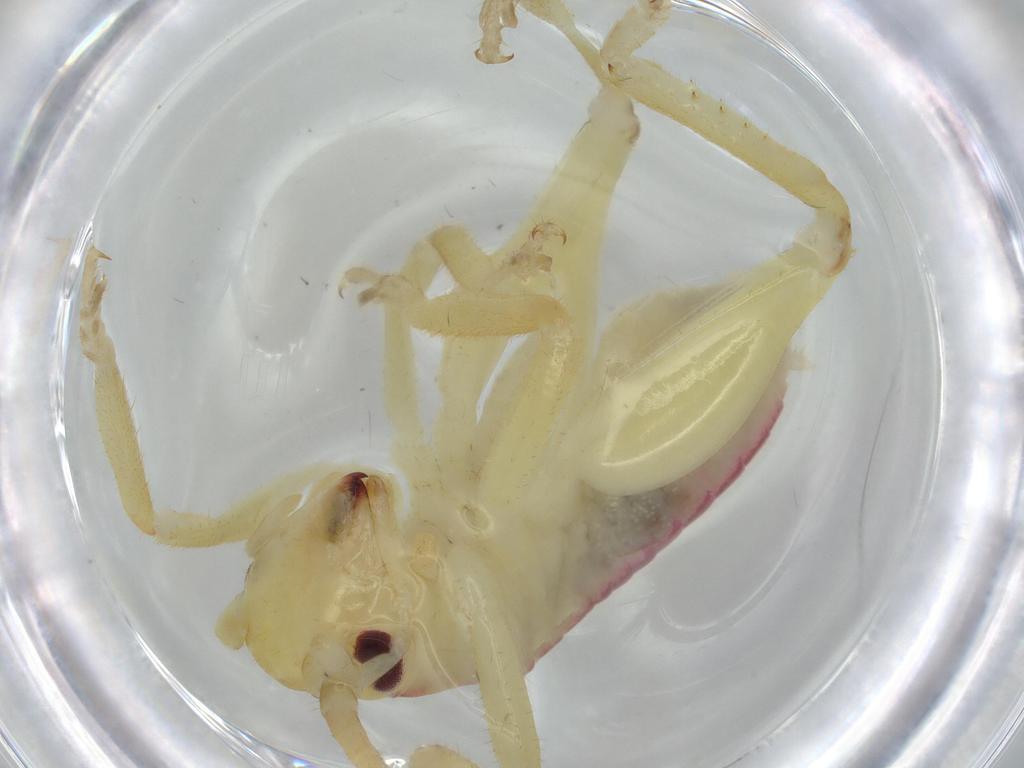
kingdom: Animalia
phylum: Arthropoda
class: Insecta
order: Orthoptera
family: Gryllacrididae
